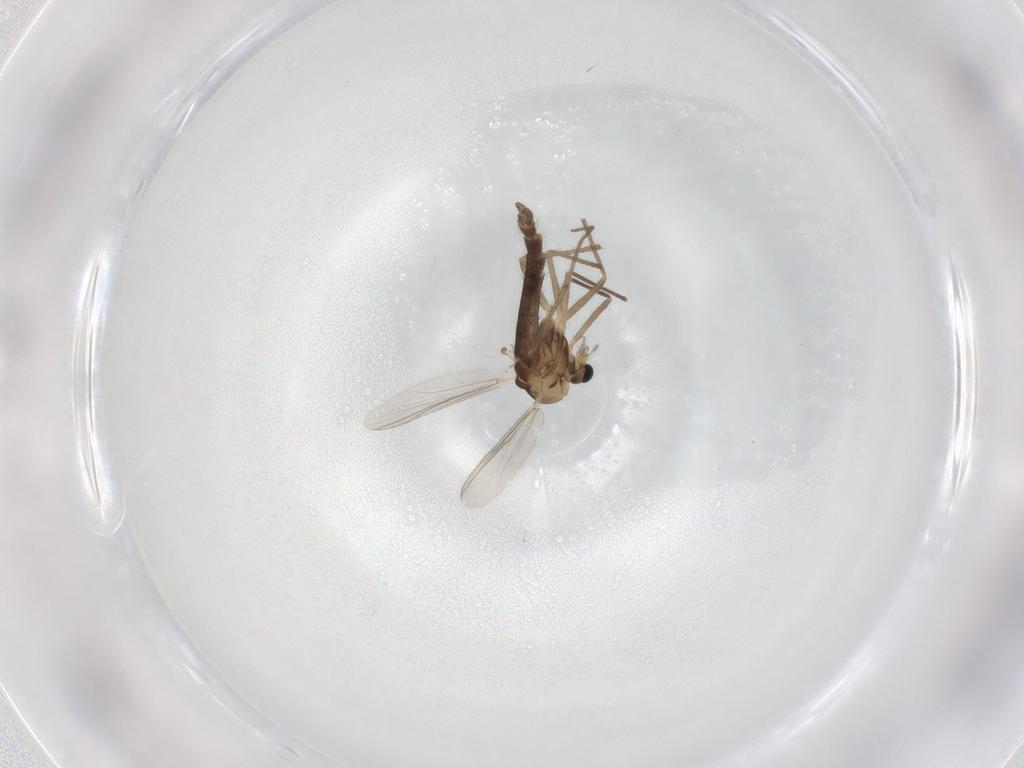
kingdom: Animalia
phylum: Arthropoda
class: Insecta
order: Diptera
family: Chironomidae
